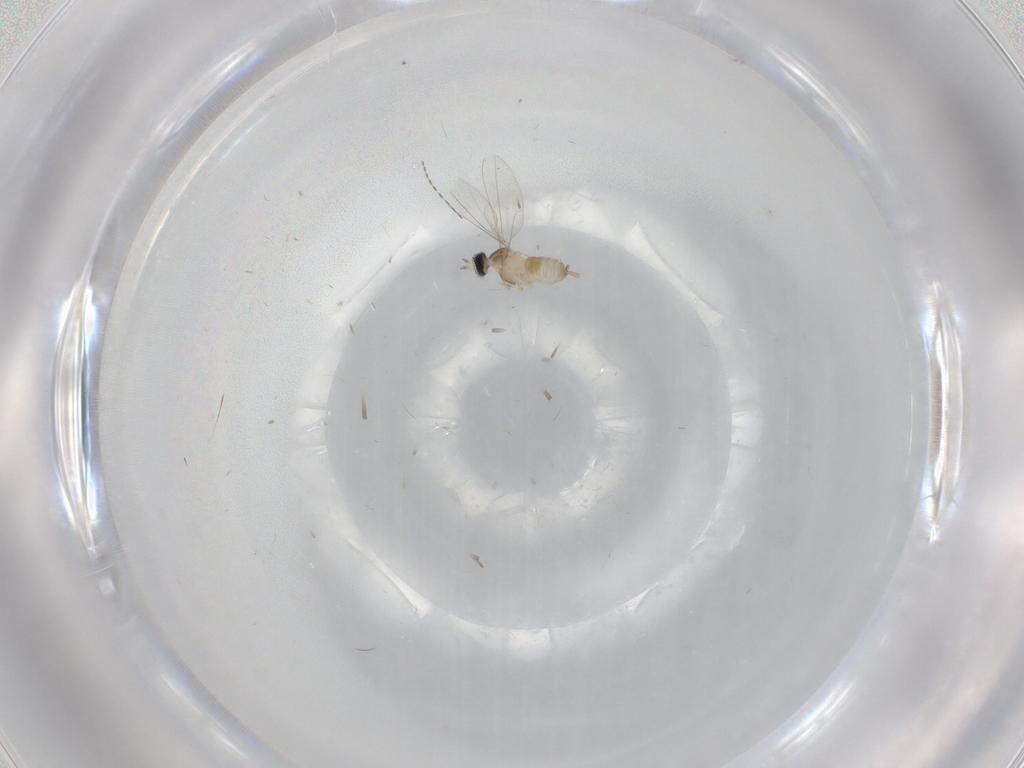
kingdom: Animalia
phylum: Arthropoda
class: Insecta
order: Diptera
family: Cecidomyiidae
